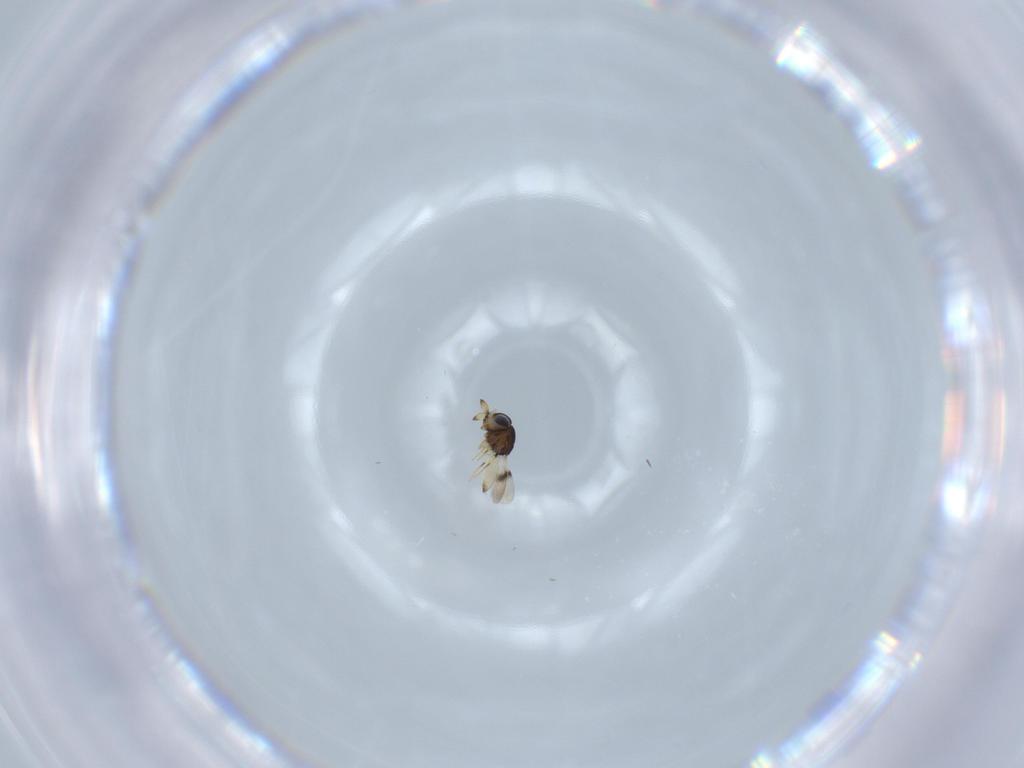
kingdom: Animalia
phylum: Arthropoda
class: Insecta
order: Hymenoptera
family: Scelionidae
